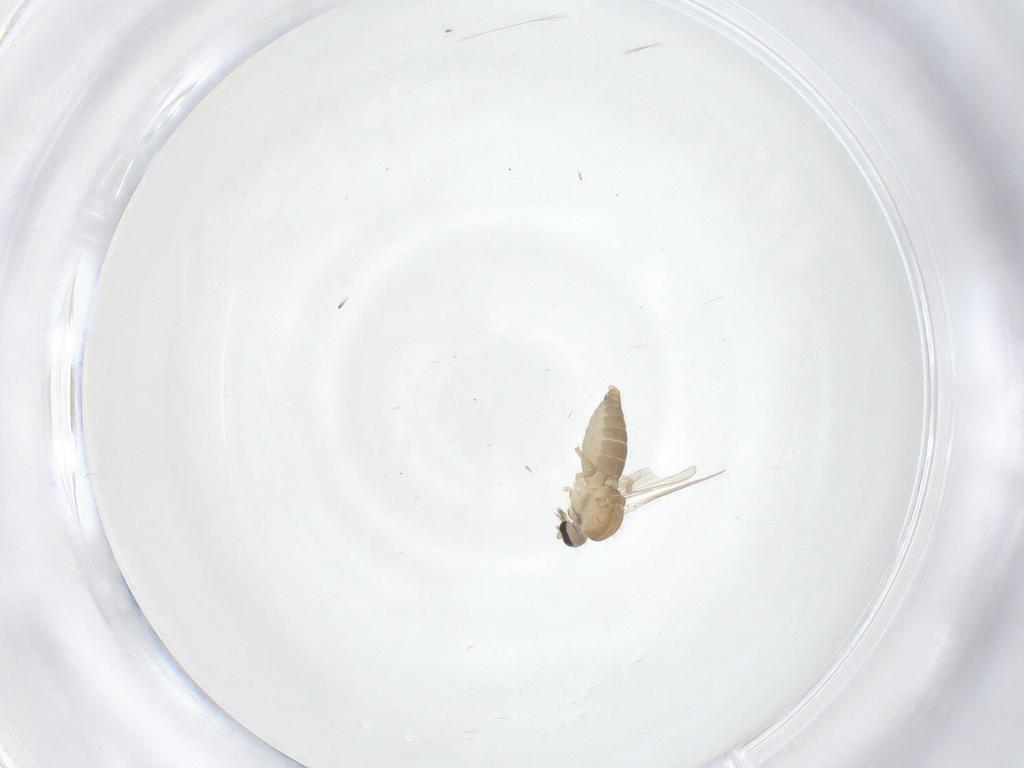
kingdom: Animalia
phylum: Arthropoda
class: Insecta
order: Diptera
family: Ceratopogonidae
